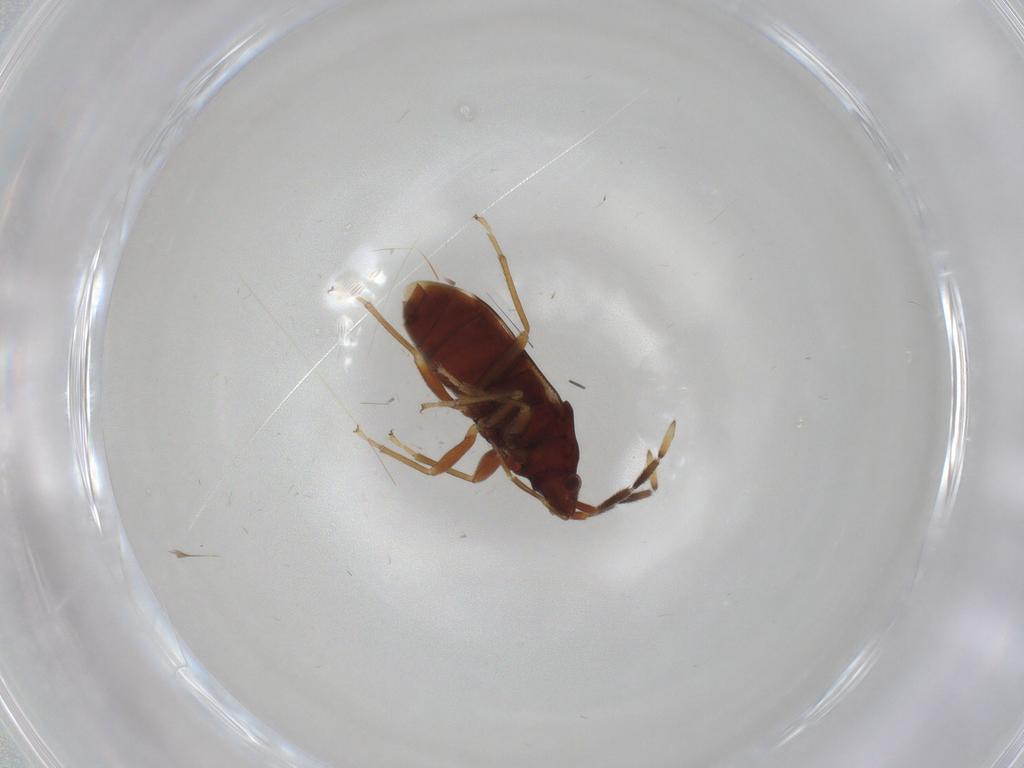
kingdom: Animalia
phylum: Arthropoda
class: Insecta
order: Hemiptera
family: Rhyparochromidae
